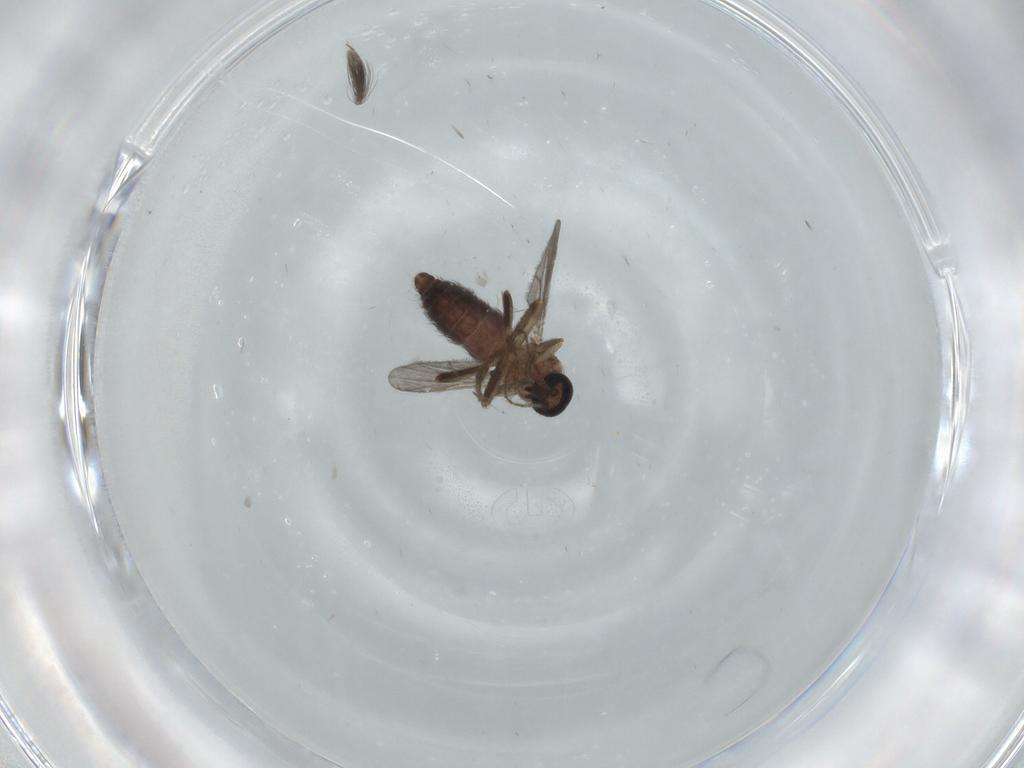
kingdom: Animalia
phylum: Arthropoda
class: Insecta
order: Diptera
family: Cecidomyiidae
